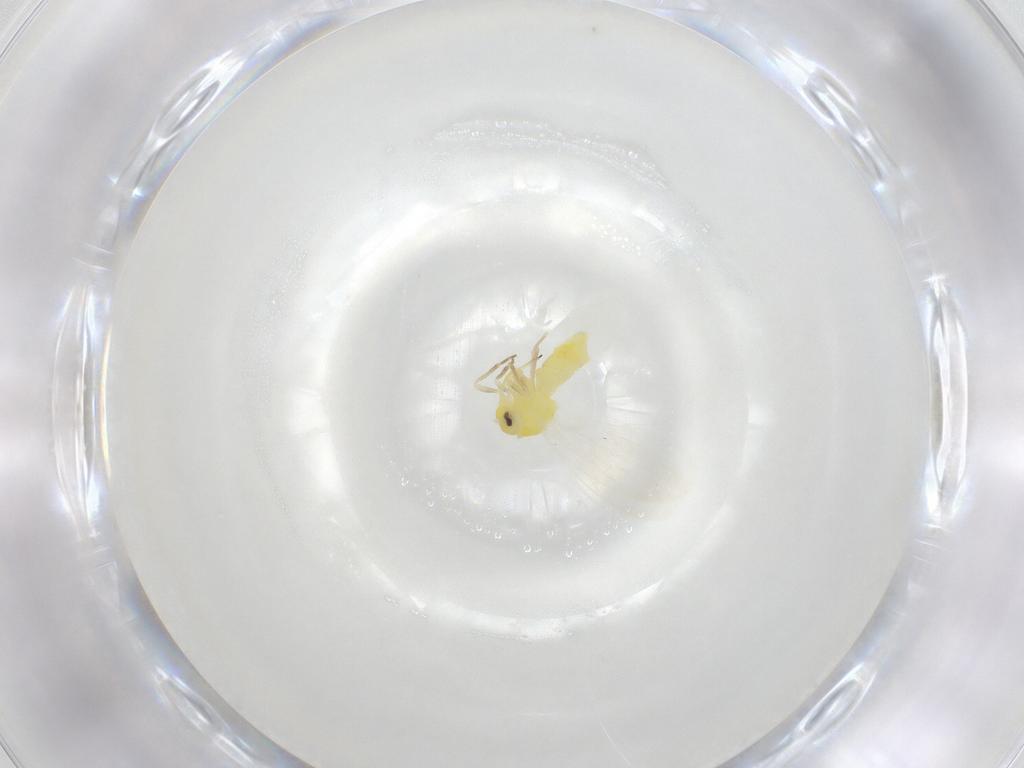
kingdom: Animalia
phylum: Arthropoda
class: Insecta
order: Hemiptera
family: Aleyrodidae
